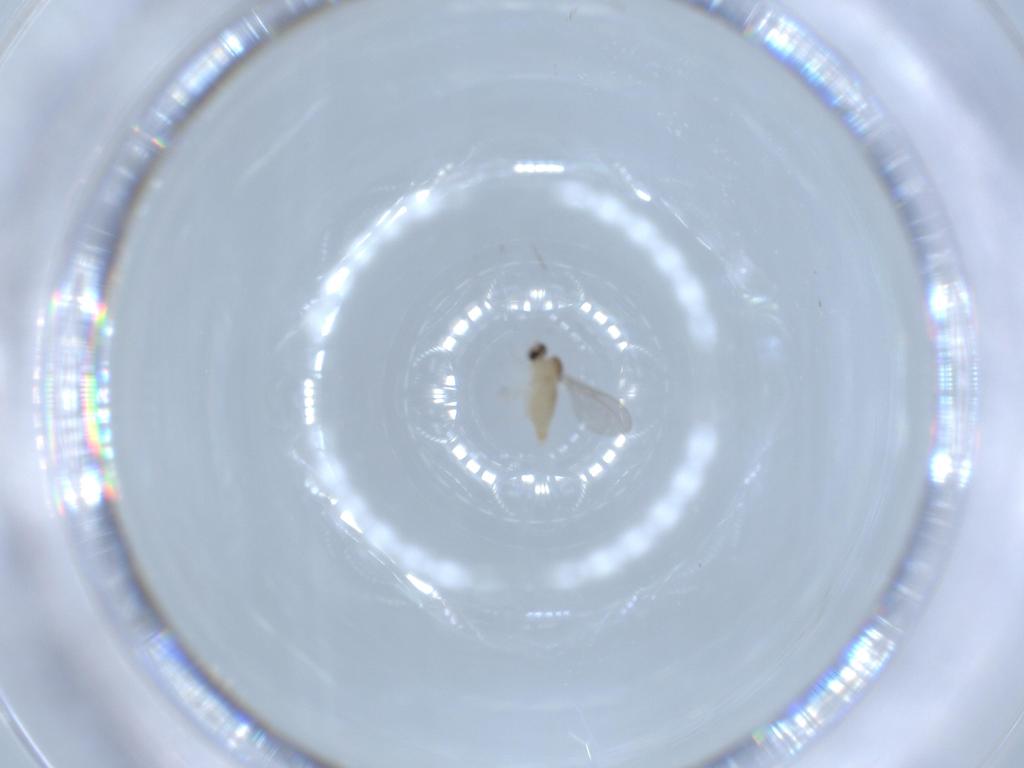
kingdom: Animalia
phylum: Arthropoda
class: Insecta
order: Diptera
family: Cecidomyiidae
